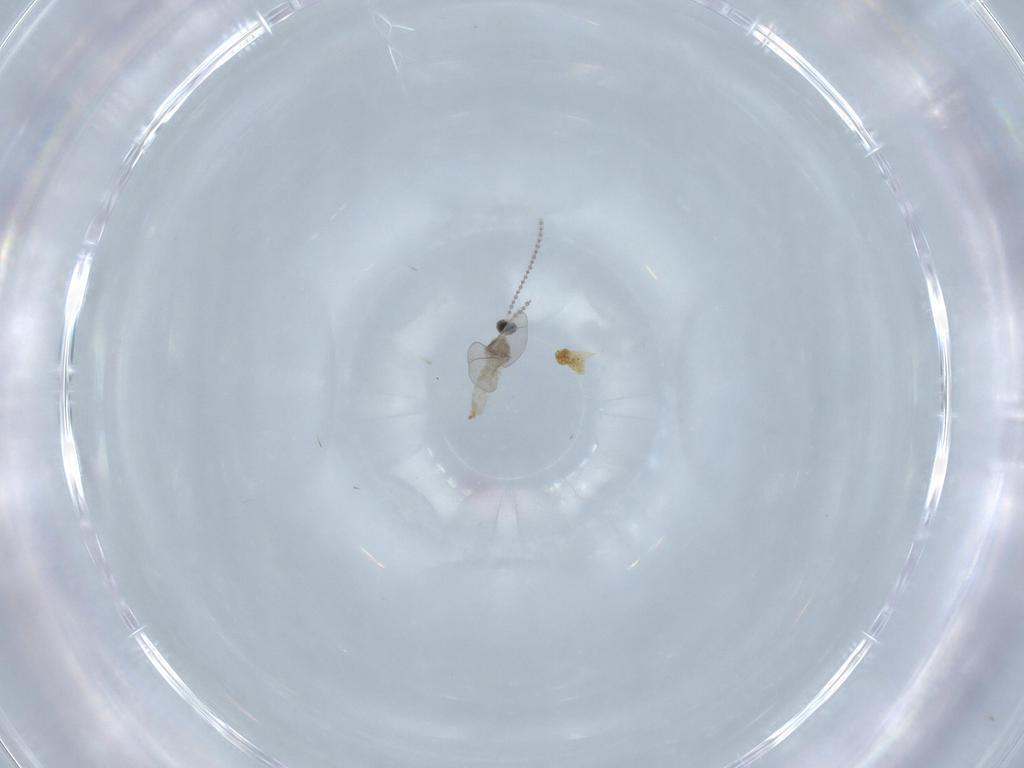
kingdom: Animalia
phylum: Arthropoda
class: Insecta
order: Diptera
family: Cecidomyiidae
